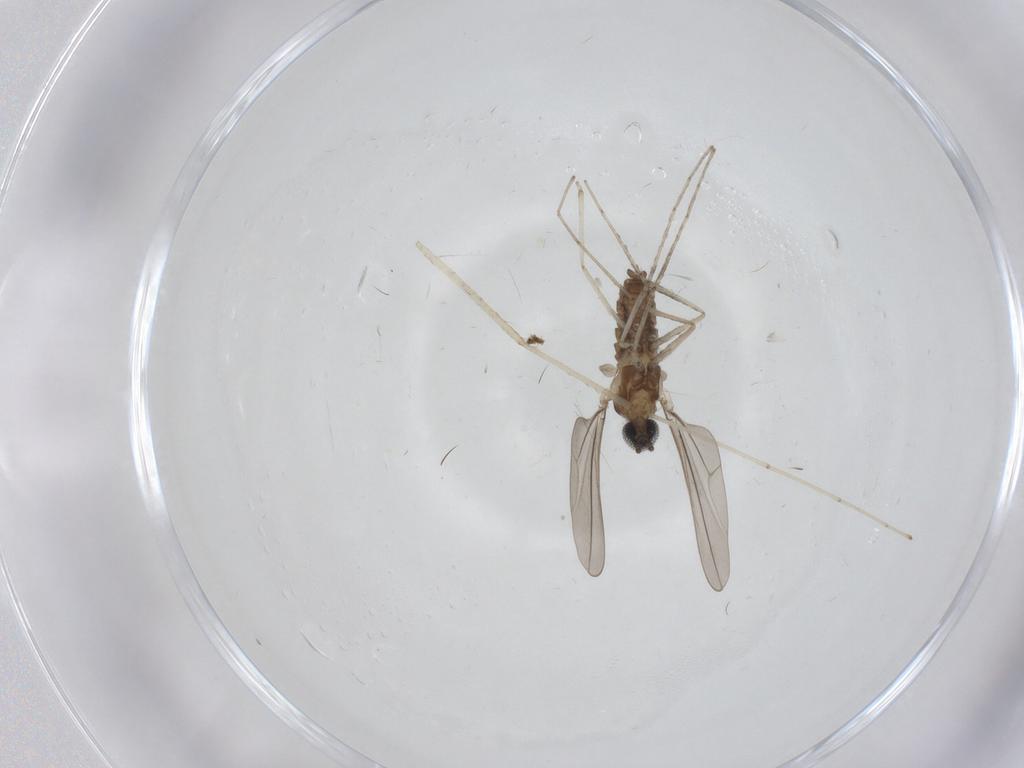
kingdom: Animalia
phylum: Arthropoda
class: Insecta
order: Diptera
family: Cecidomyiidae
